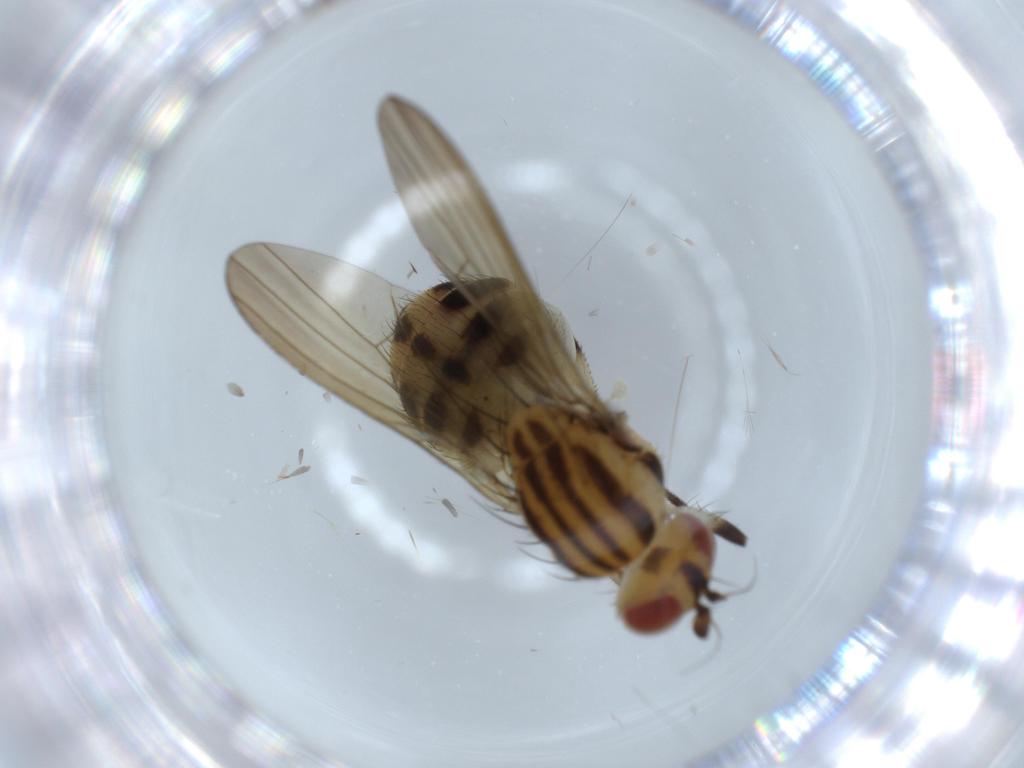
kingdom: Animalia
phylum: Arthropoda
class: Insecta
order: Diptera
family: Lauxaniidae
